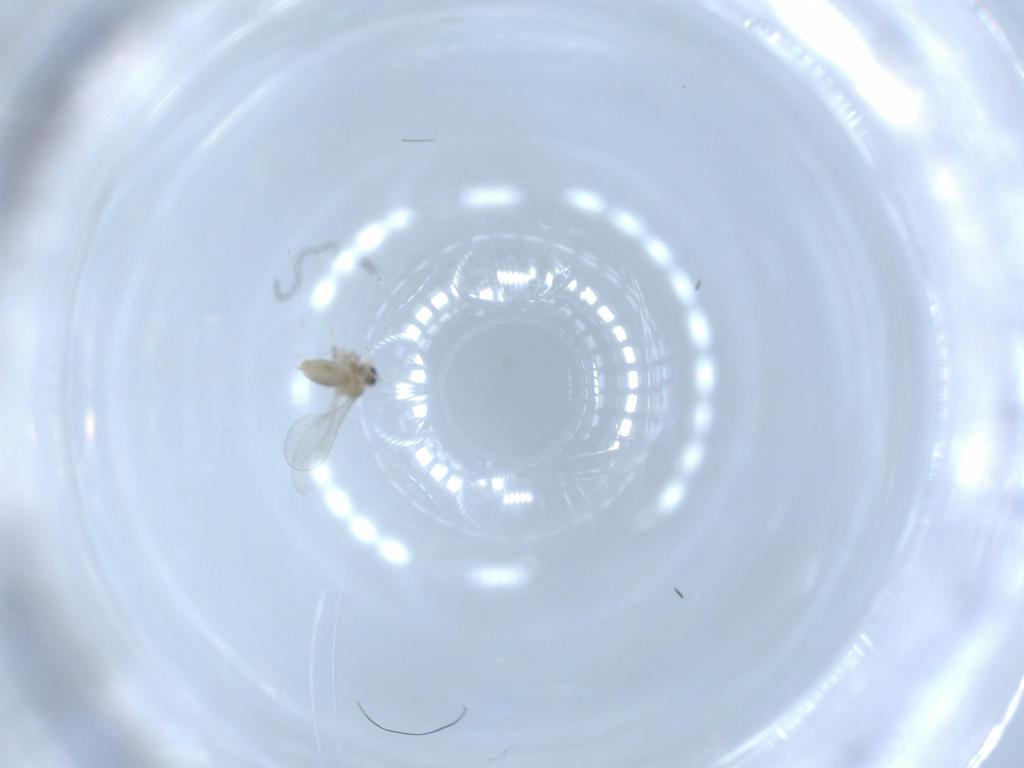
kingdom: Animalia
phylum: Arthropoda
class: Insecta
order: Diptera
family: Cecidomyiidae
